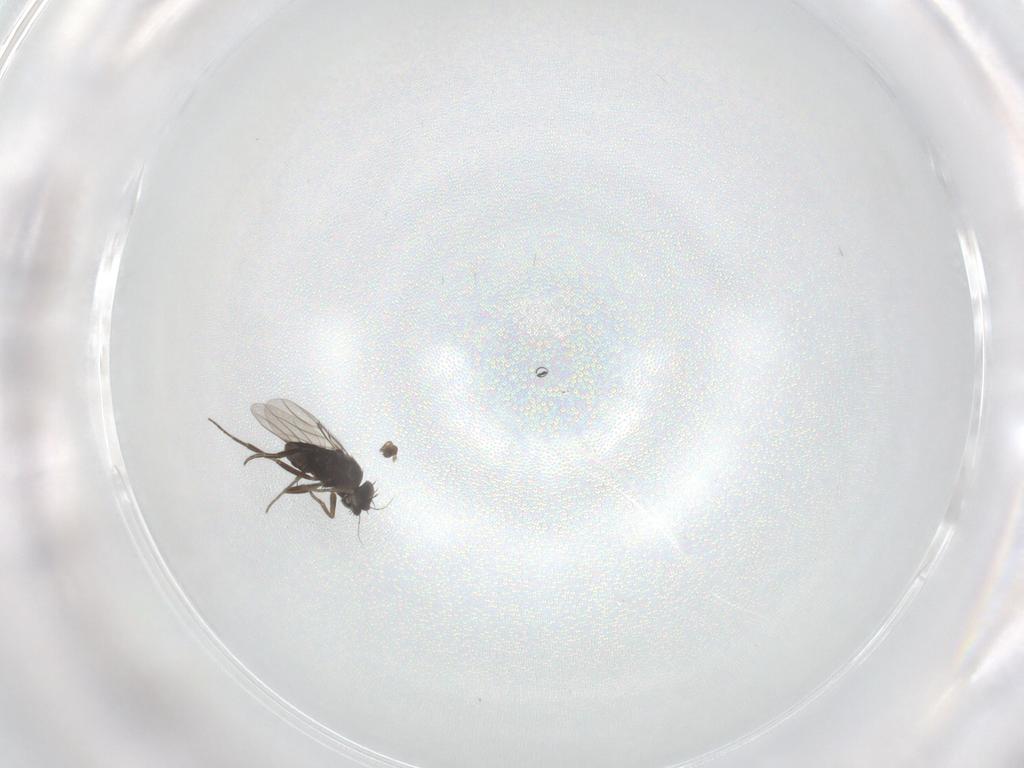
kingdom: Animalia
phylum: Arthropoda
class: Insecta
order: Diptera
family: Phoridae
